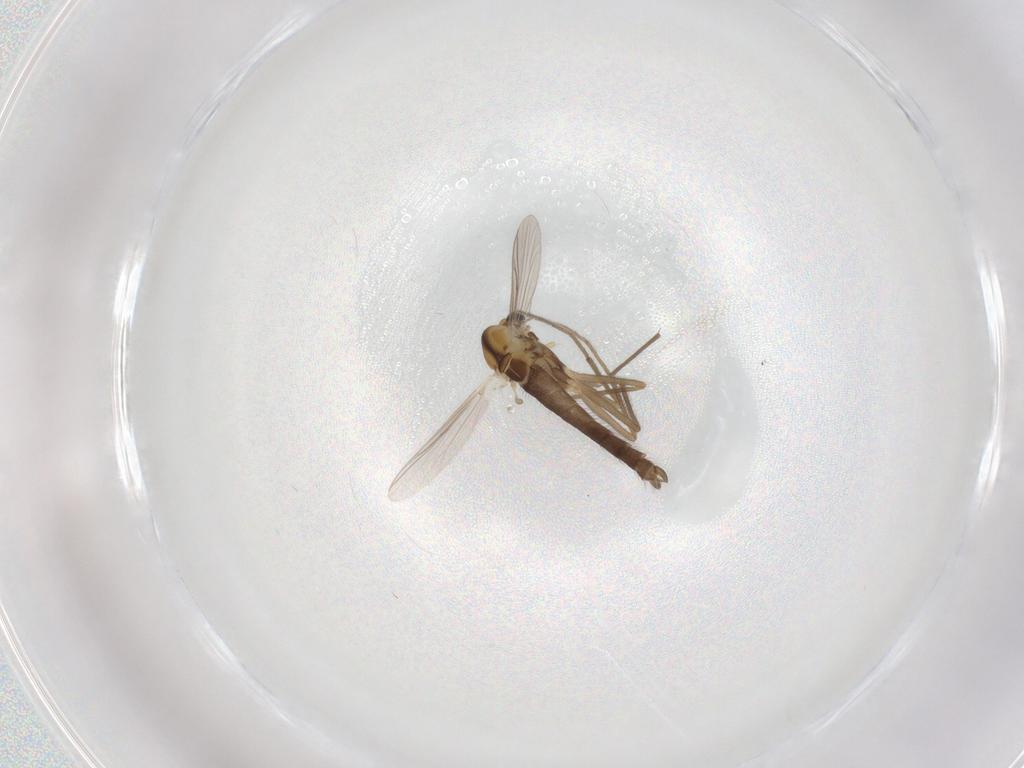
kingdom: Animalia
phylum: Arthropoda
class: Insecta
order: Diptera
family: Chironomidae
